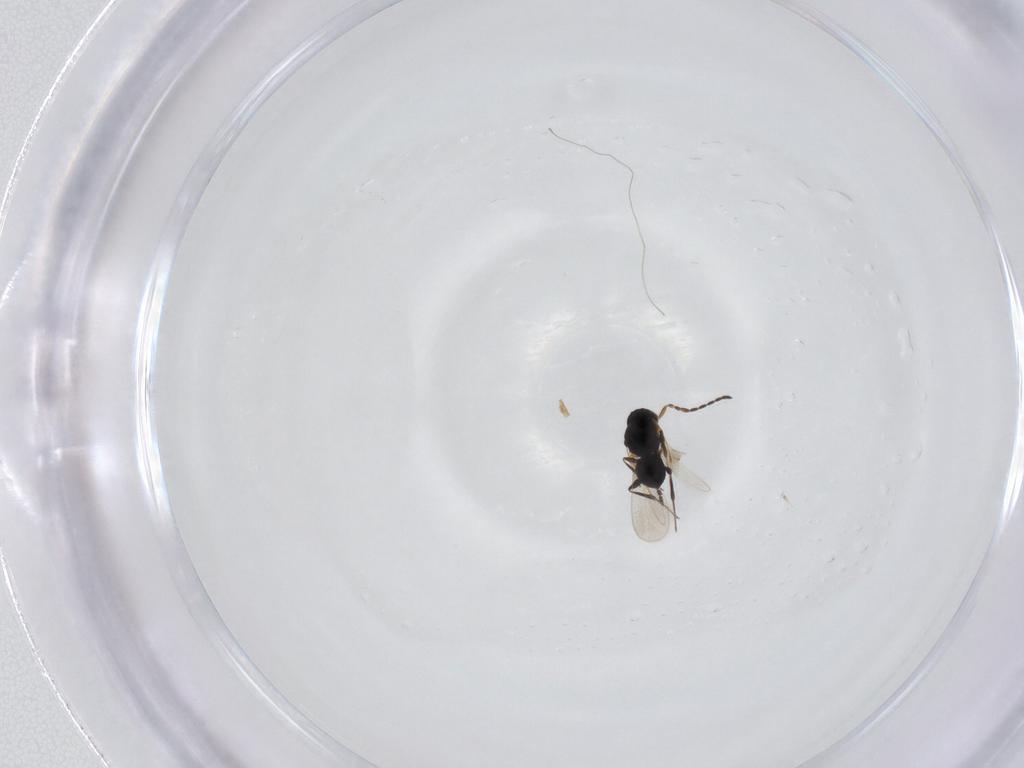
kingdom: Animalia
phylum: Arthropoda
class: Insecta
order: Hymenoptera
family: Platygastridae
